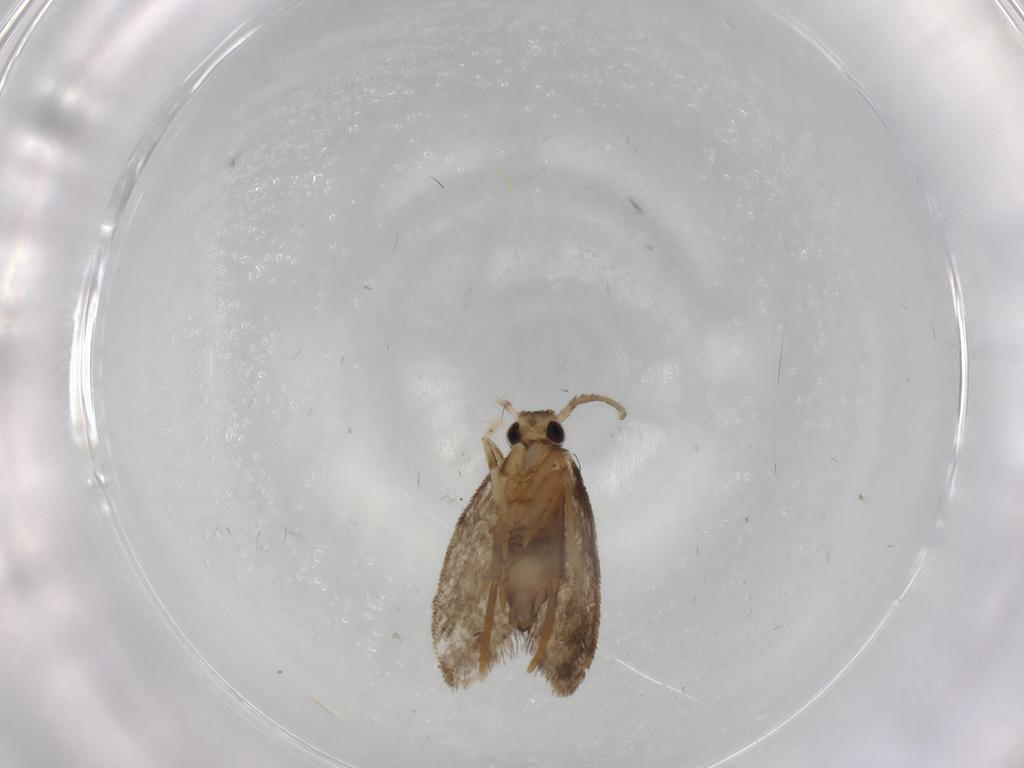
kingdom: Animalia
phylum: Arthropoda
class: Insecta
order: Lepidoptera
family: Psychidae
